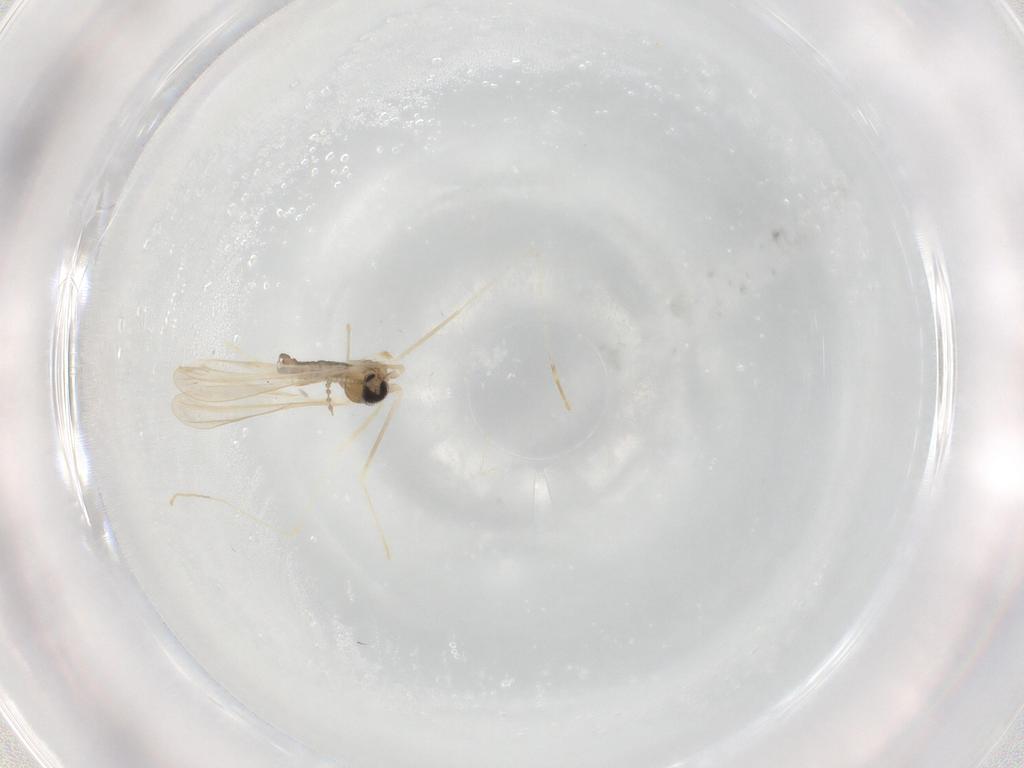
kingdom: Animalia
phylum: Arthropoda
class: Insecta
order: Diptera
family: Cecidomyiidae
